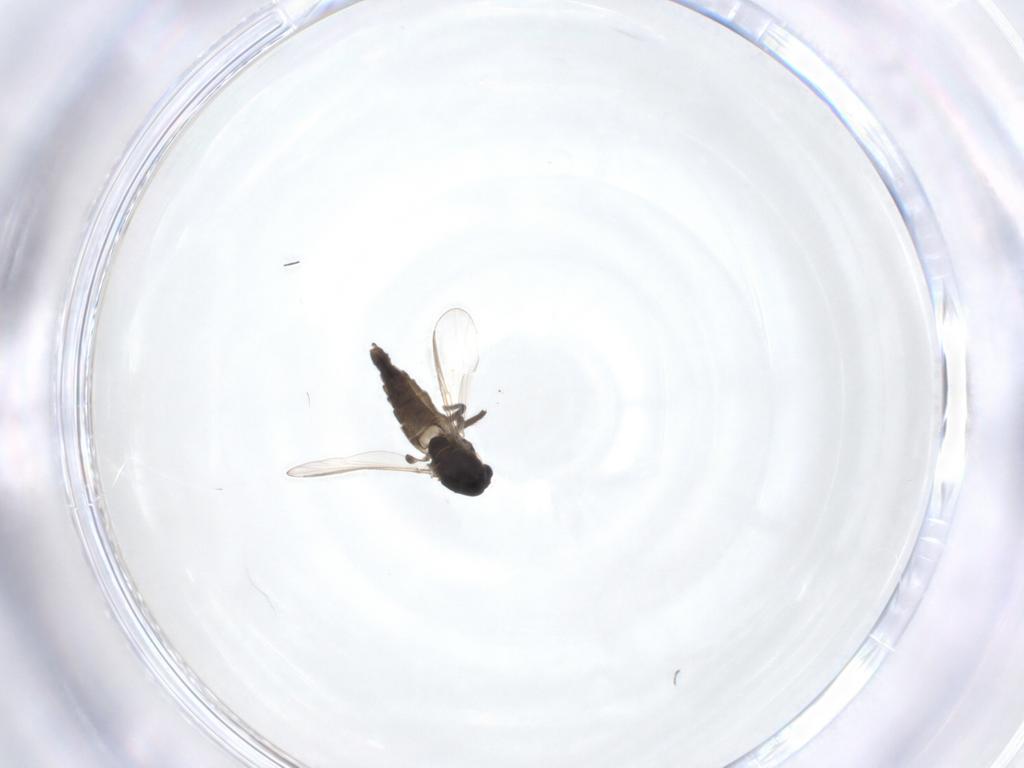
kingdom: Animalia
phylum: Arthropoda
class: Insecta
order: Diptera
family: Chironomidae
